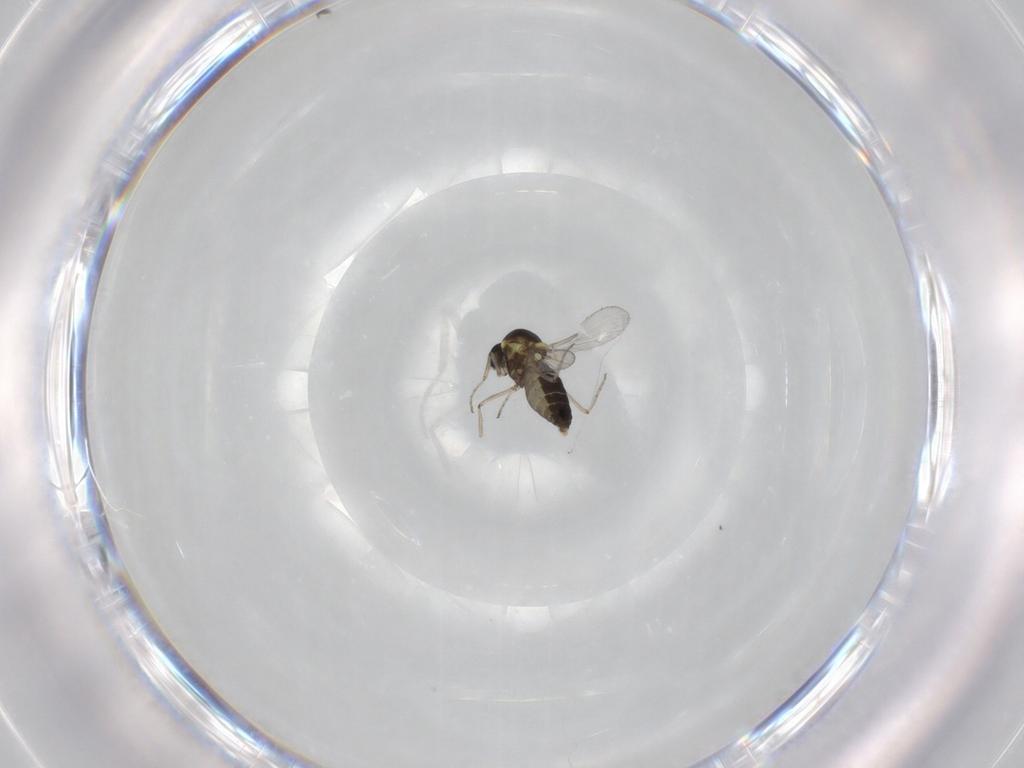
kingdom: Animalia
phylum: Arthropoda
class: Insecta
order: Diptera
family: Ceratopogonidae
